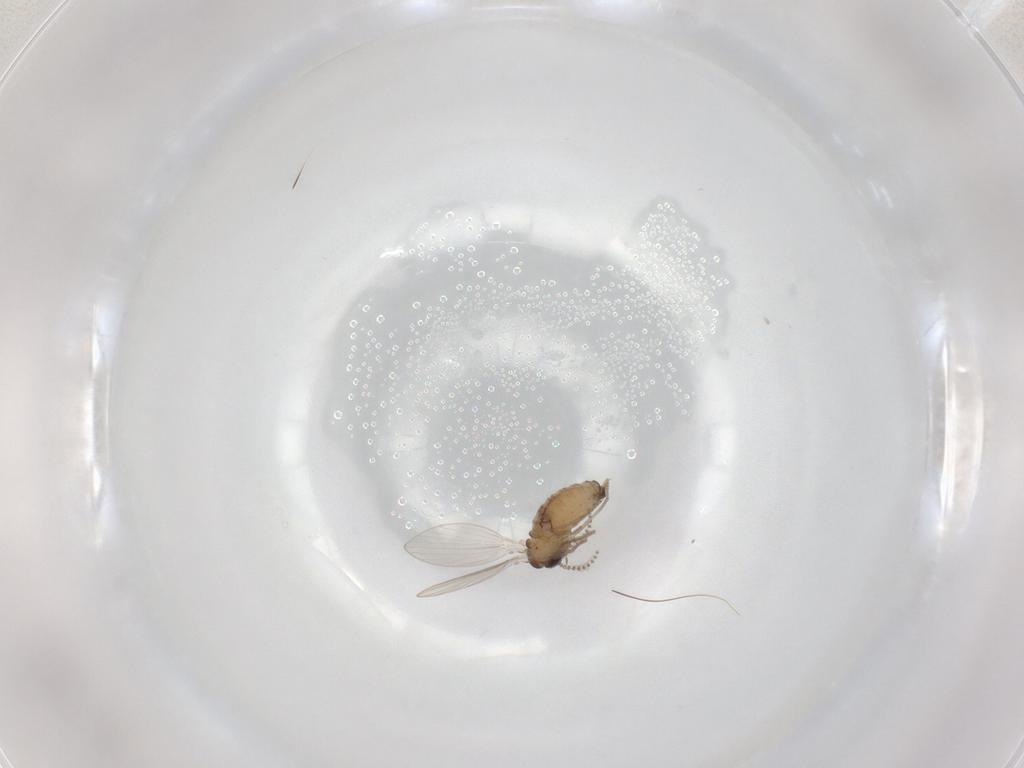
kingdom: Animalia
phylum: Arthropoda
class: Insecta
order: Diptera
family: Psychodidae
